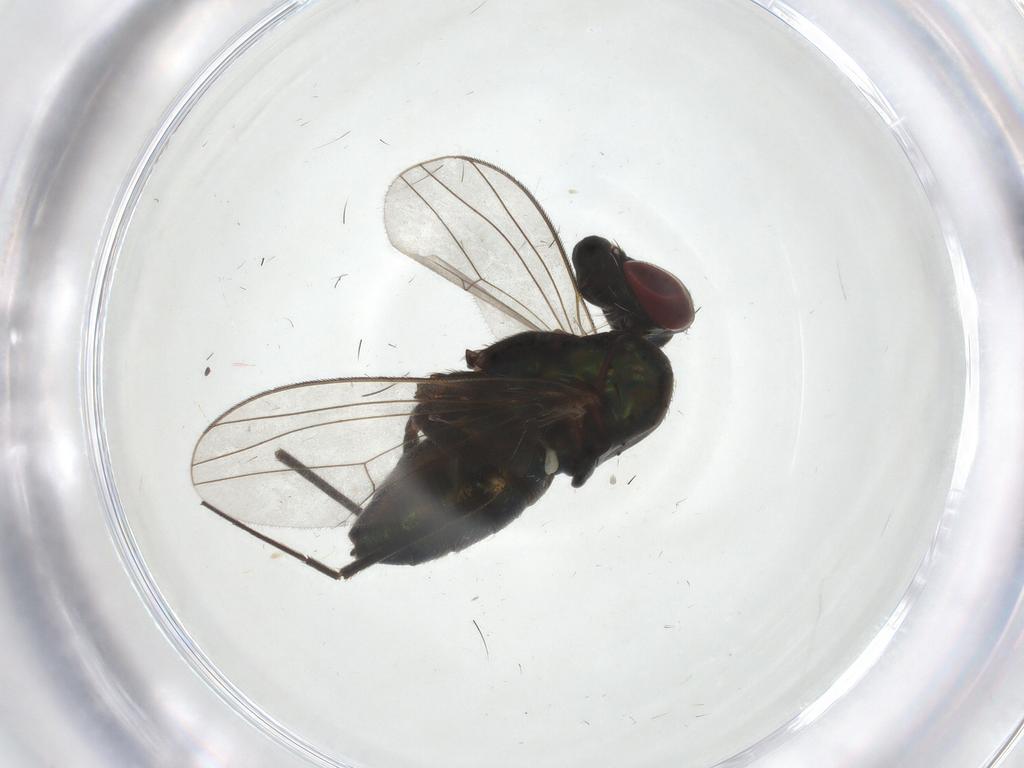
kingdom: Animalia
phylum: Arthropoda
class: Insecta
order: Diptera
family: Dolichopodidae
